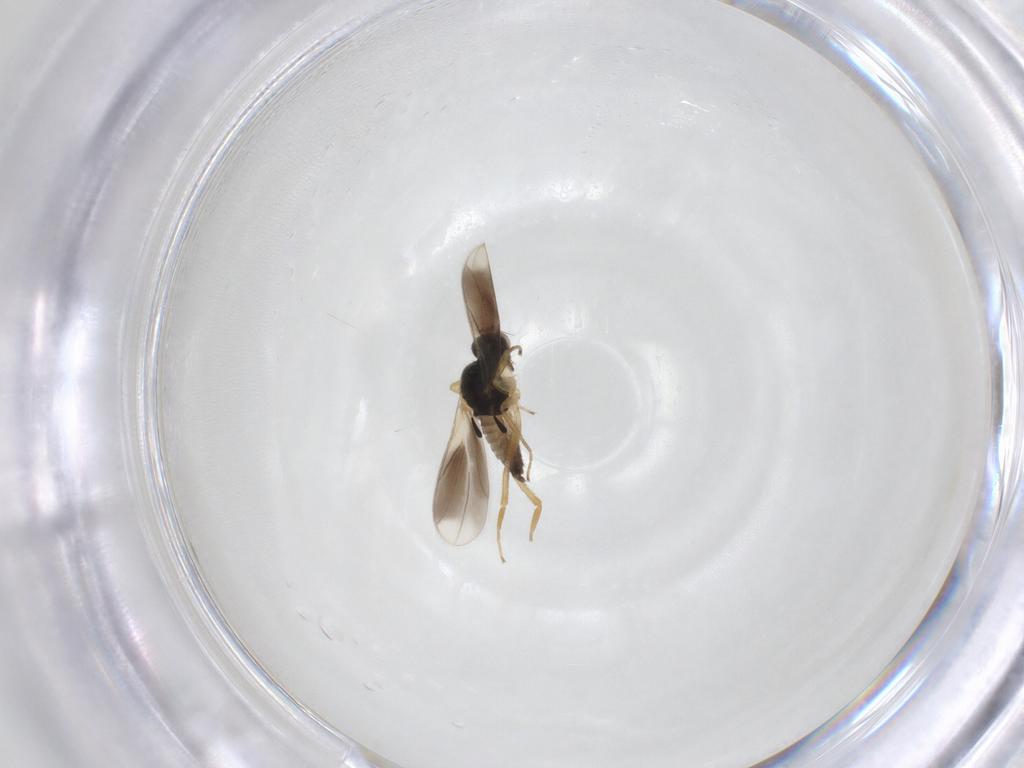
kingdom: Animalia
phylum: Arthropoda
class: Insecta
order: Diptera
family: Hybotidae
